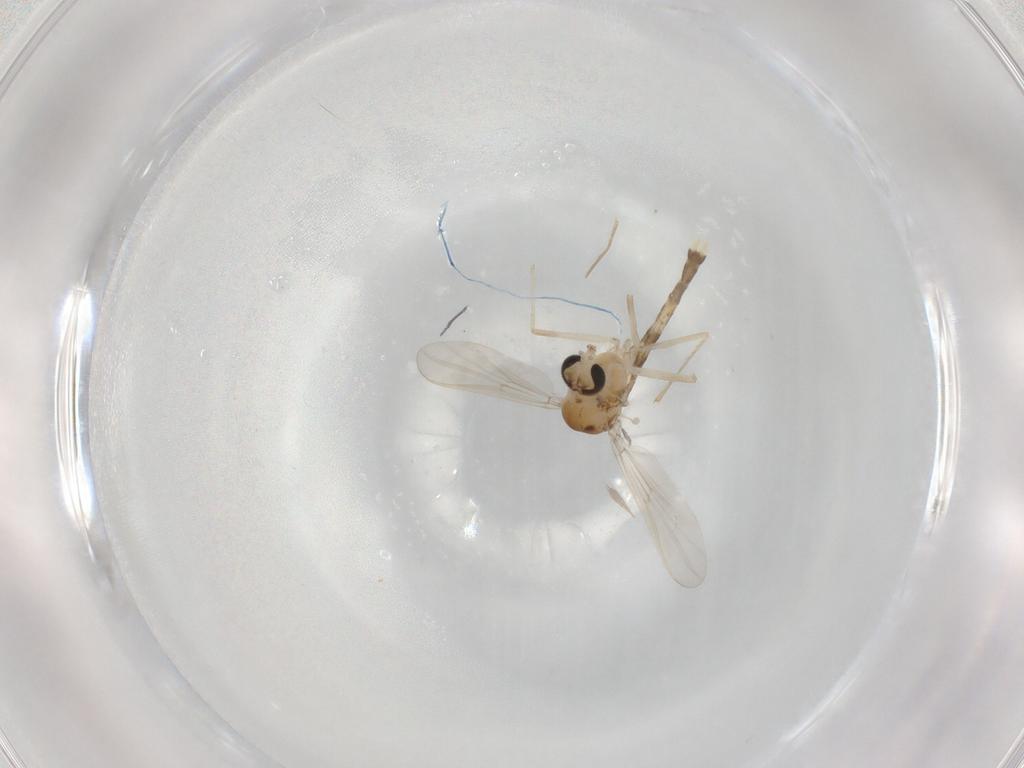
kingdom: Animalia
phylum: Arthropoda
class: Insecta
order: Diptera
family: Chironomidae
